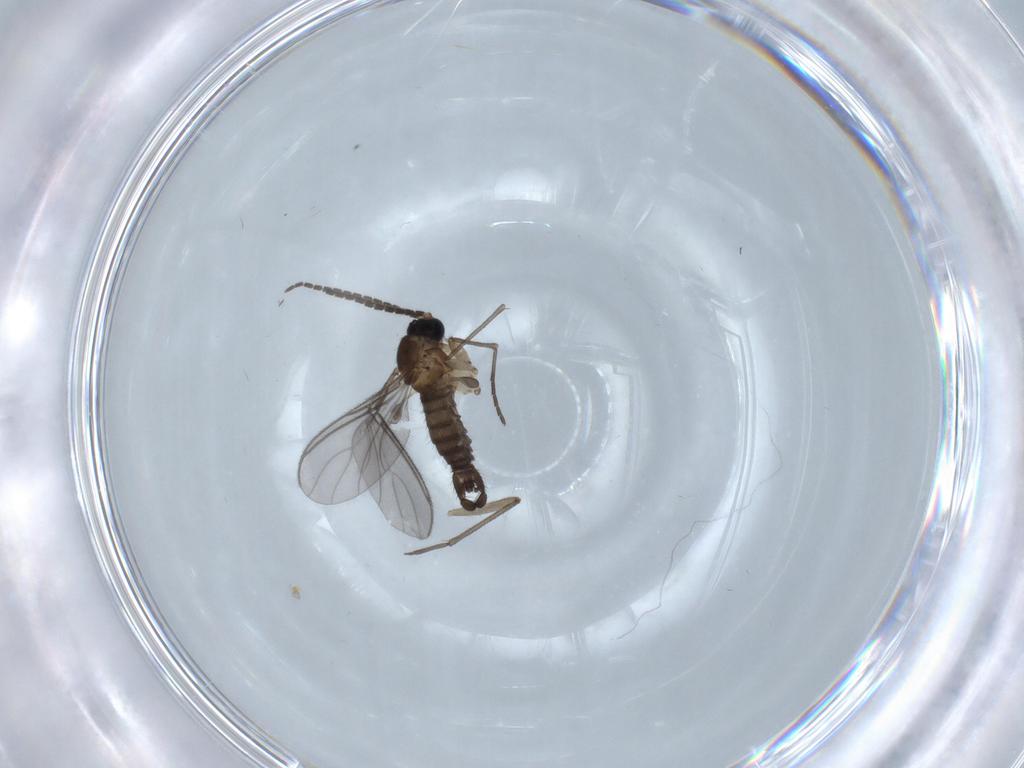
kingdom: Animalia
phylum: Arthropoda
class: Insecta
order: Diptera
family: Sciaridae
